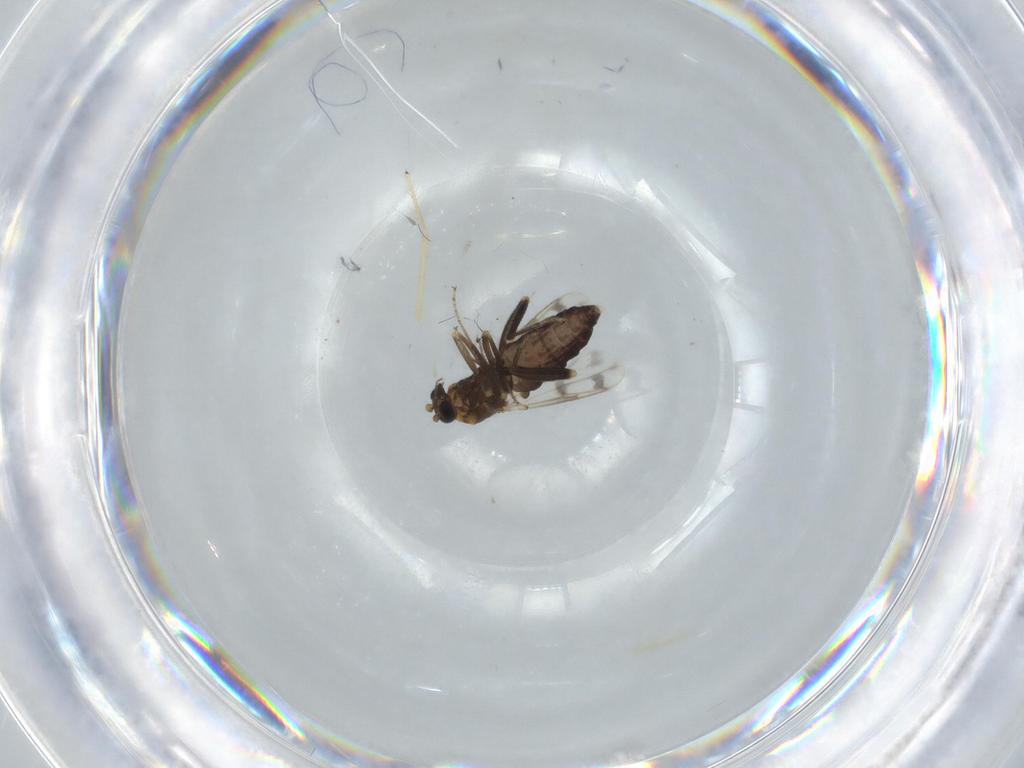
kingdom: Animalia
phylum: Arthropoda
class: Insecta
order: Diptera
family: Ceratopogonidae
